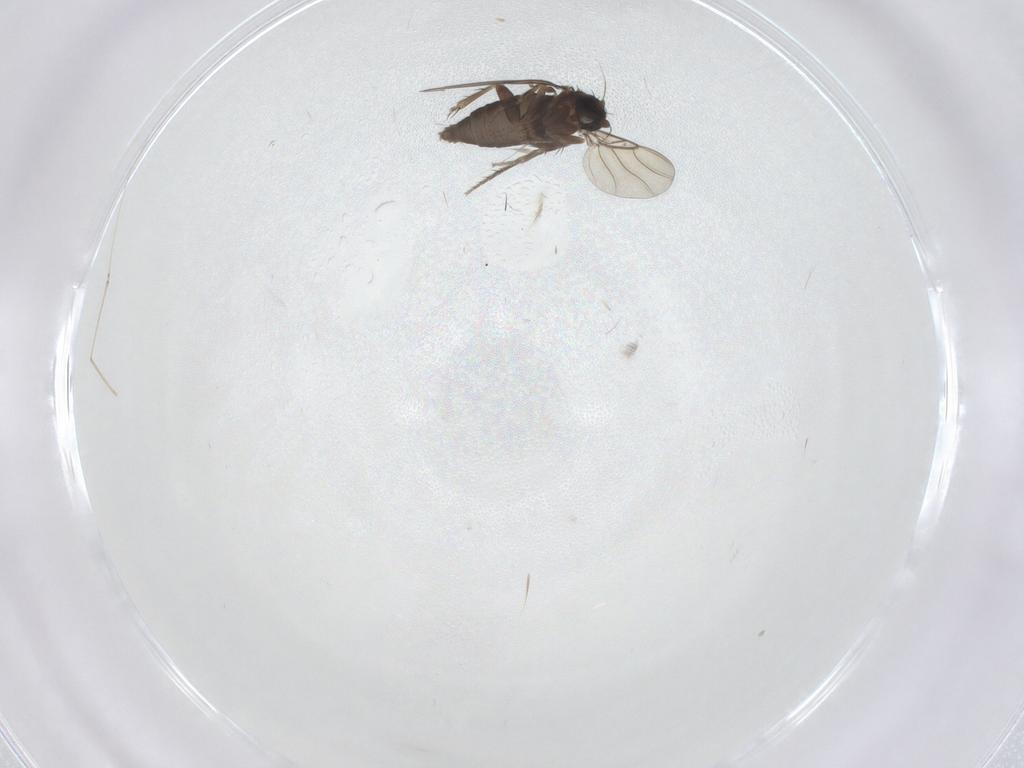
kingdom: Animalia
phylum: Arthropoda
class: Insecta
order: Diptera
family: Phoridae
